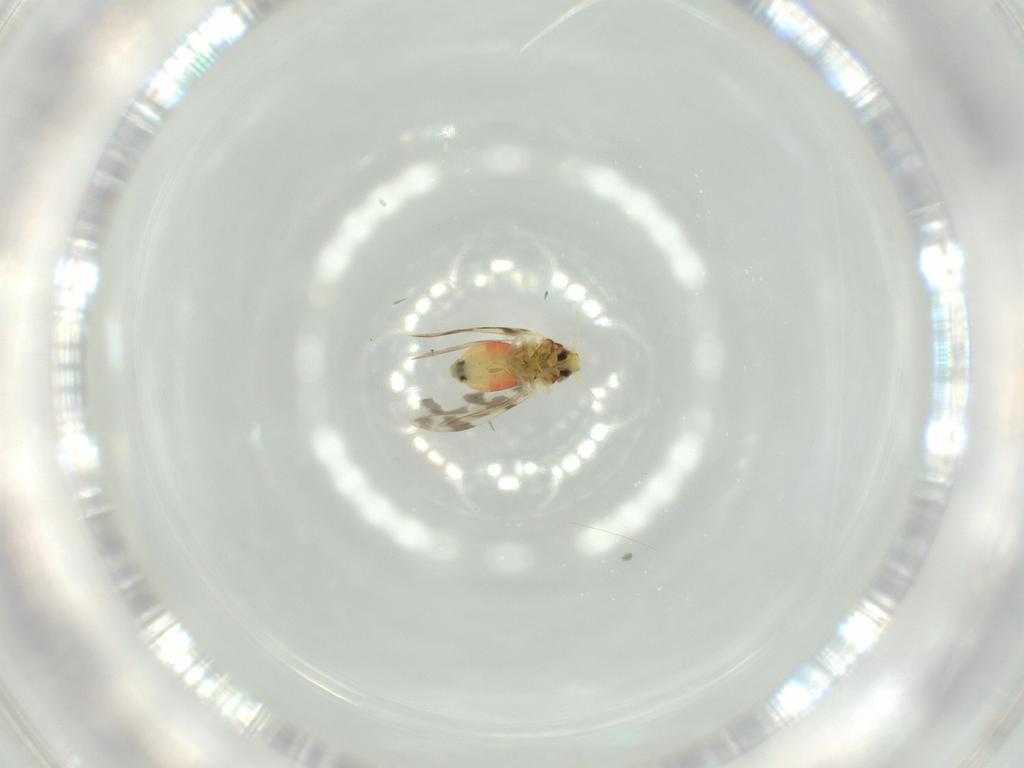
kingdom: Animalia
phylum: Arthropoda
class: Insecta
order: Hemiptera
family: Aleyrodidae
